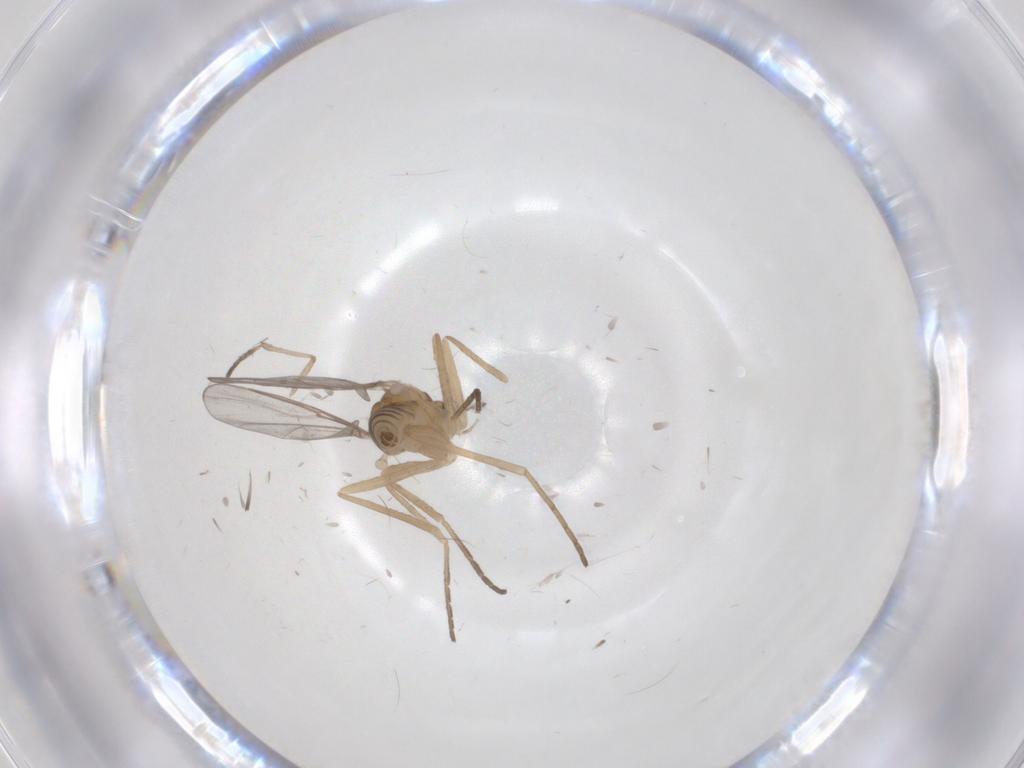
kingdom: Animalia
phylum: Arthropoda
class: Insecta
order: Diptera
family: Cecidomyiidae
